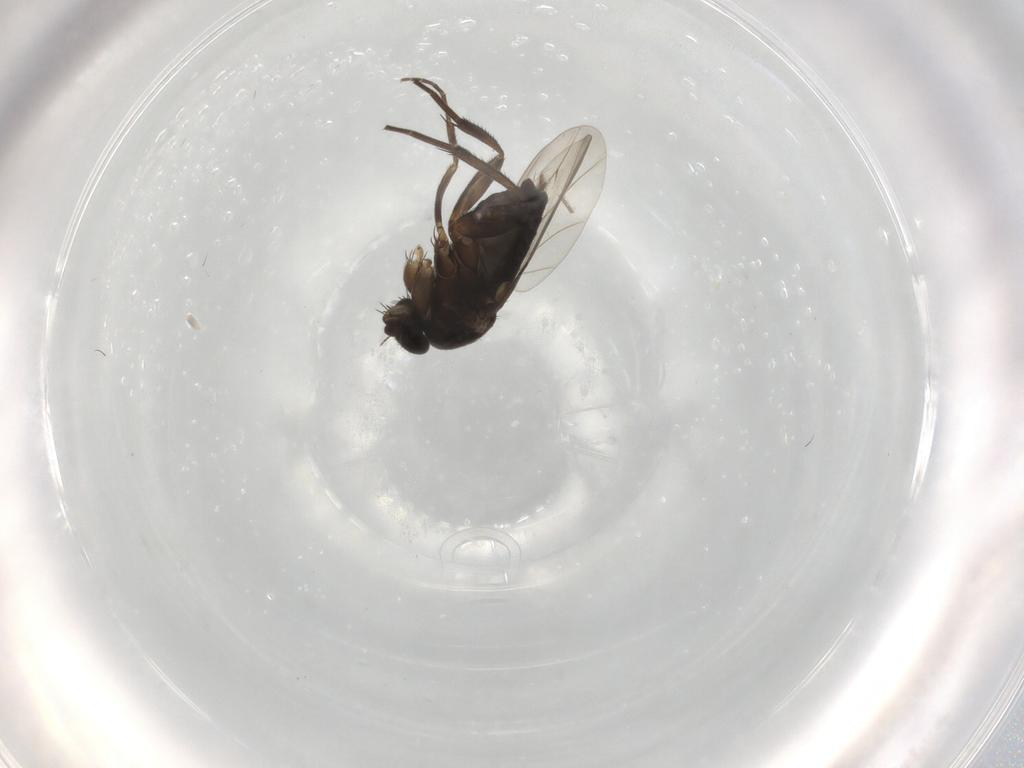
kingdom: Animalia
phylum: Arthropoda
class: Insecta
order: Diptera
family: Phoridae
